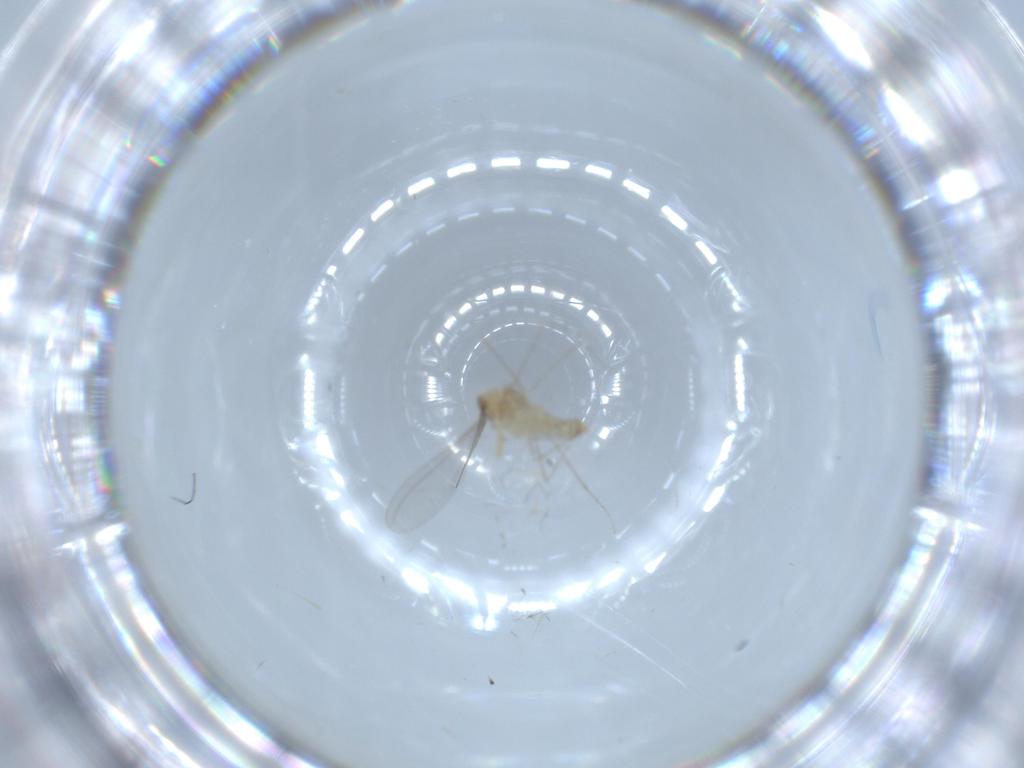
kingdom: Animalia
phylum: Arthropoda
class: Insecta
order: Diptera
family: Cecidomyiidae
